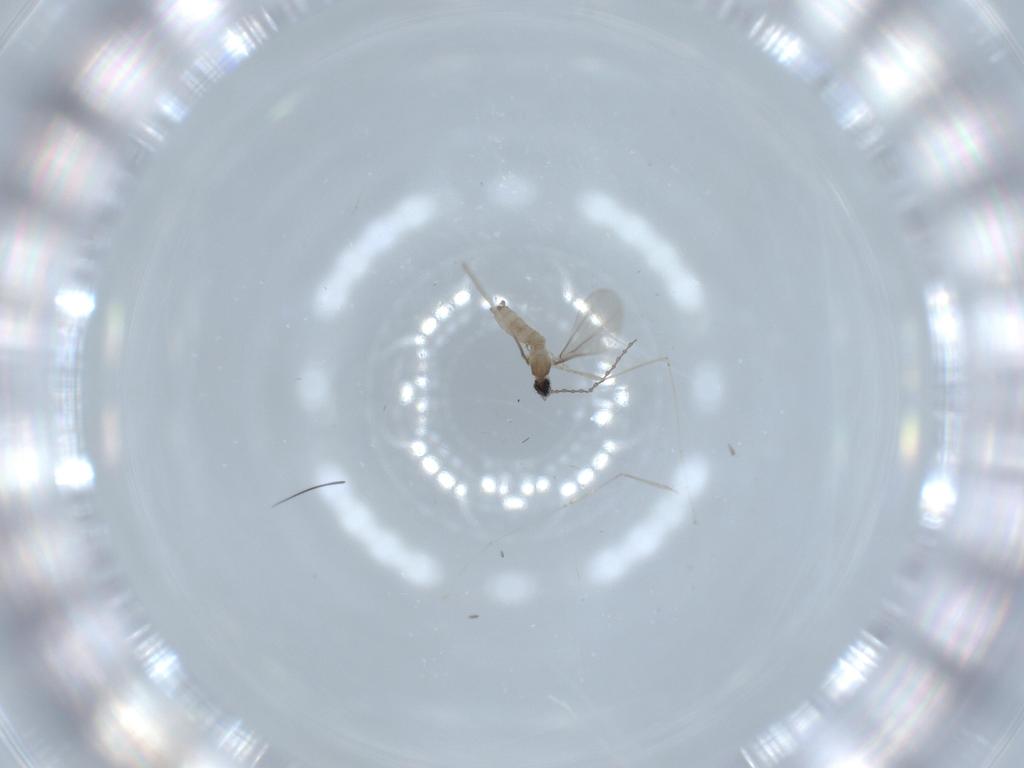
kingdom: Animalia
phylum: Arthropoda
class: Insecta
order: Diptera
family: Cecidomyiidae
